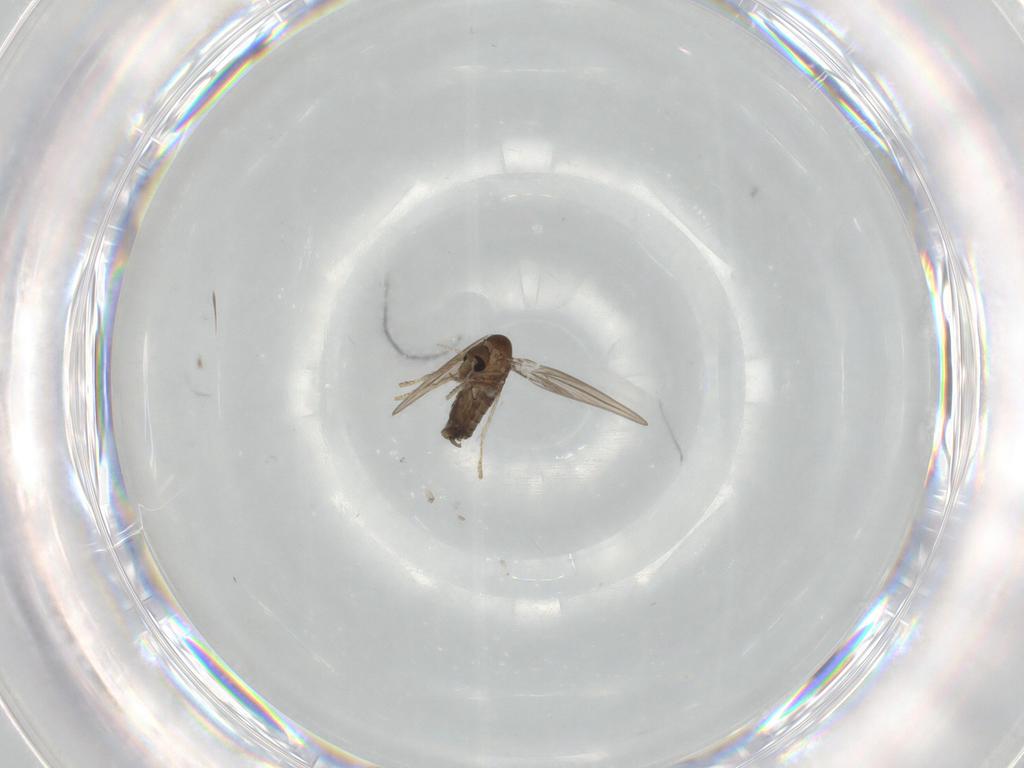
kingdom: Animalia
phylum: Arthropoda
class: Insecta
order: Diptera
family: Psychodidae
